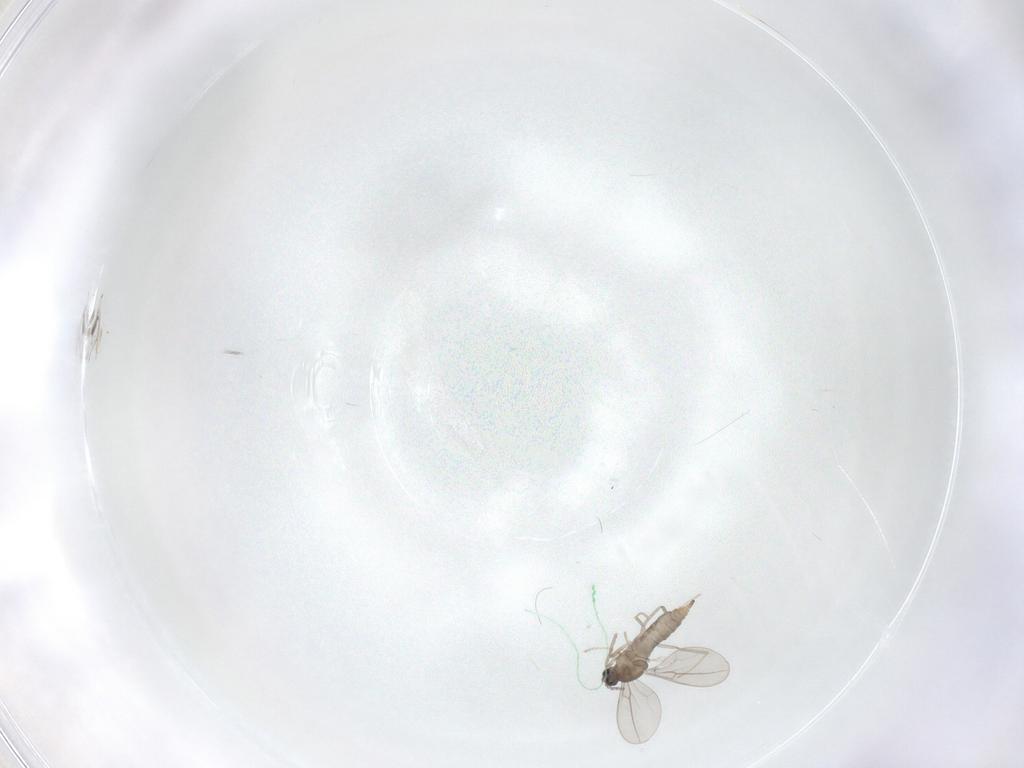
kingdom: Animalia
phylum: Arthropoda
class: Insecta
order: Diptera
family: Cecidomyiidae
